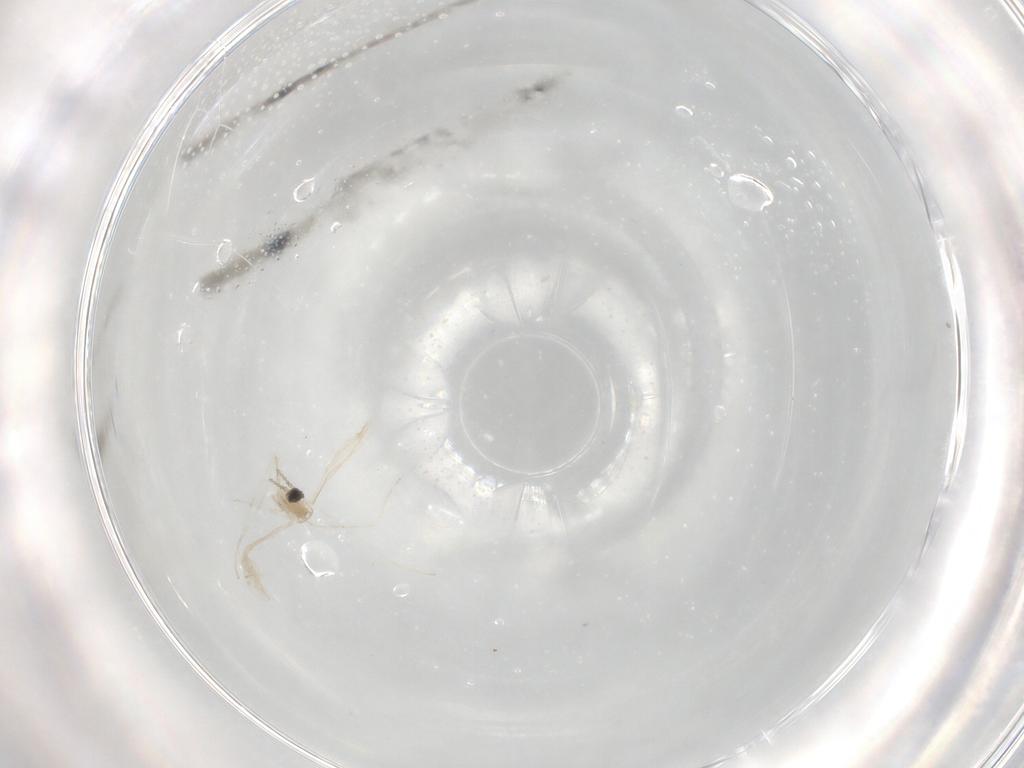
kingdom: Animalia
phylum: Arthropoda
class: Insecta
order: Diptera
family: Cecidomyiidae
